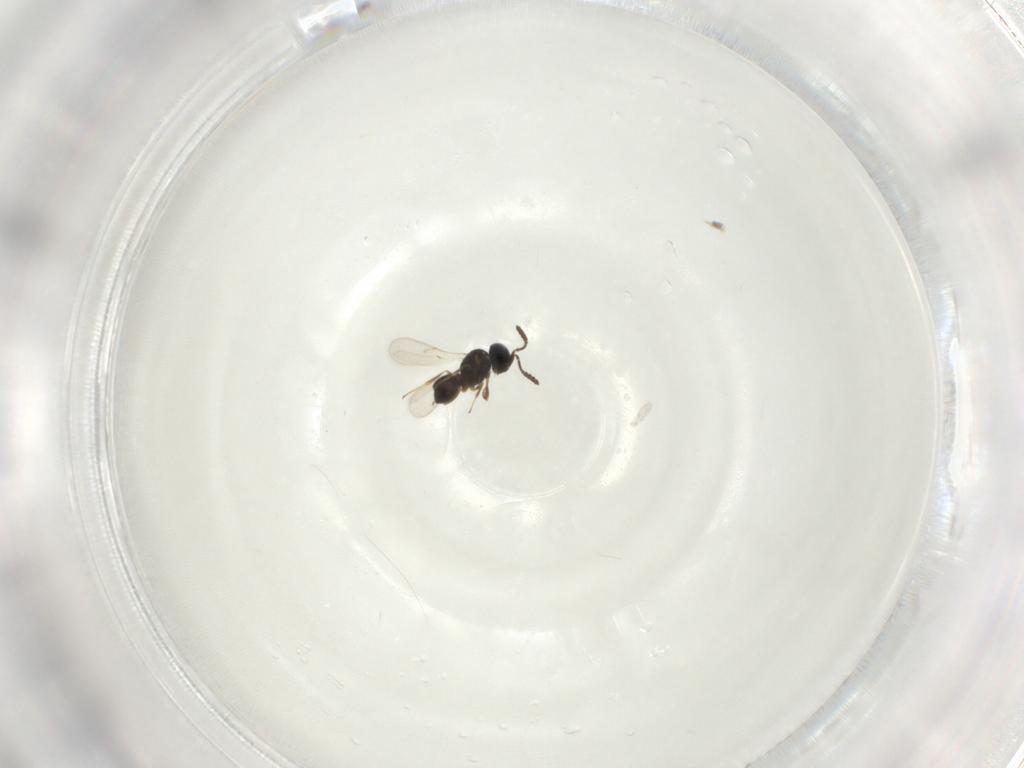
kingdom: Animalia
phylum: Arthropoda
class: Insecta
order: Hymenoptera
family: Scelionidae
